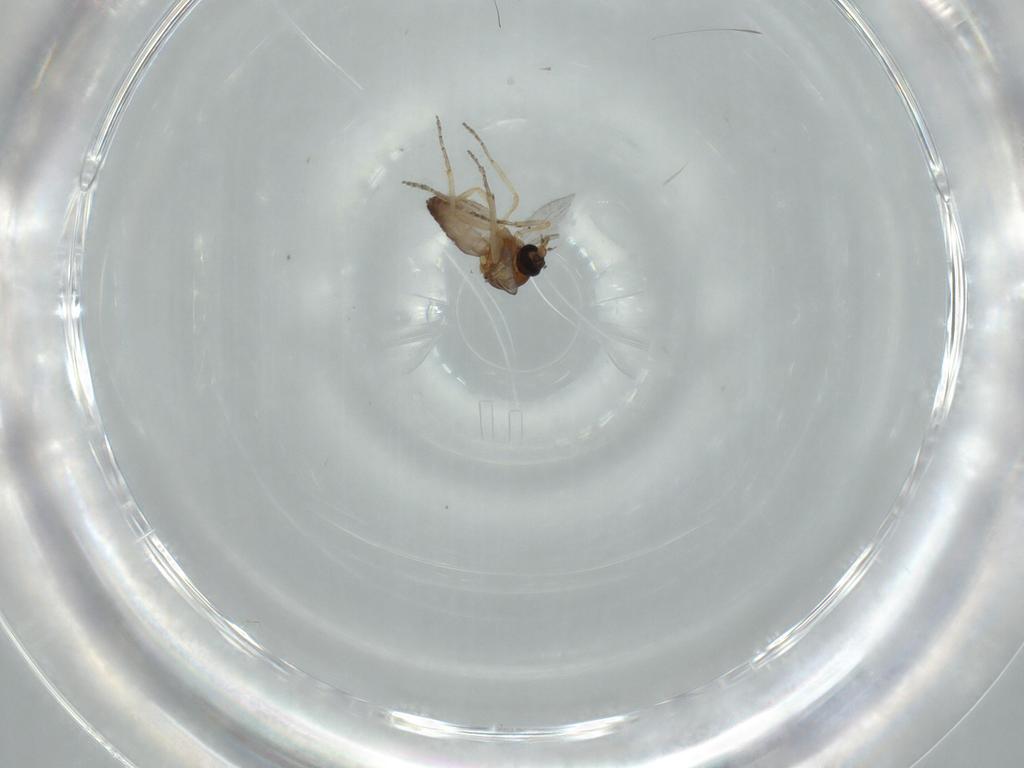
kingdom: Animalia
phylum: Arthropoda
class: Insecta
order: Diptera
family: Ceratopogonidae
